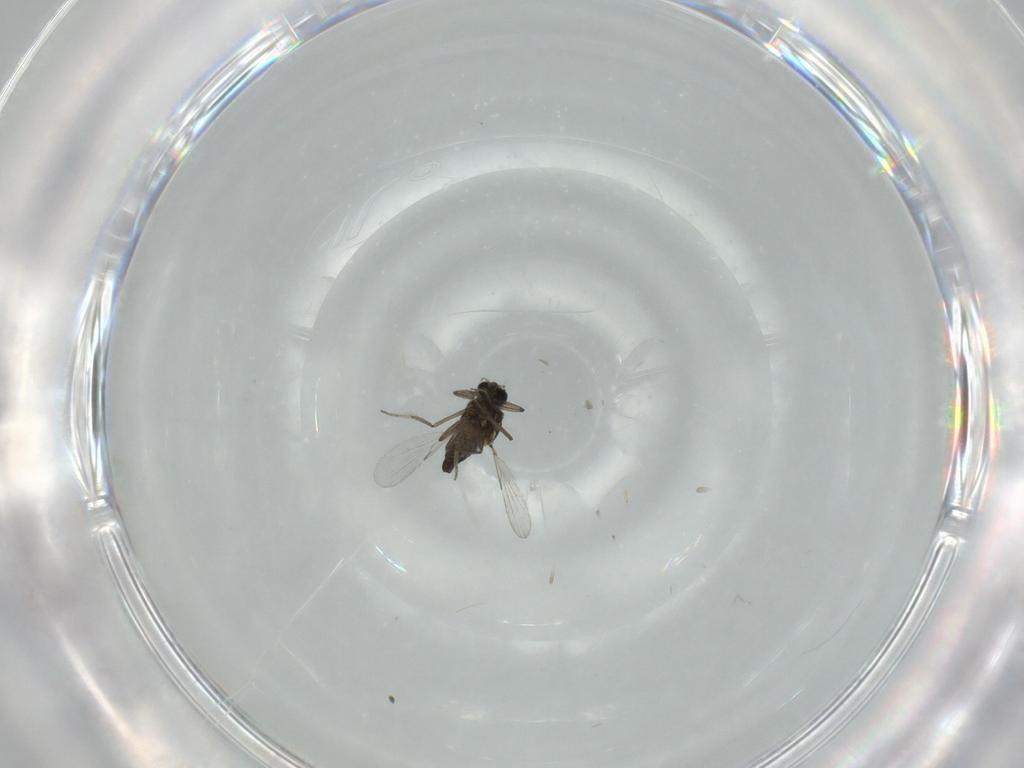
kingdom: Animalia
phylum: Arthropoda
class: Insecta
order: Diptera
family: Ceratopogonidae
